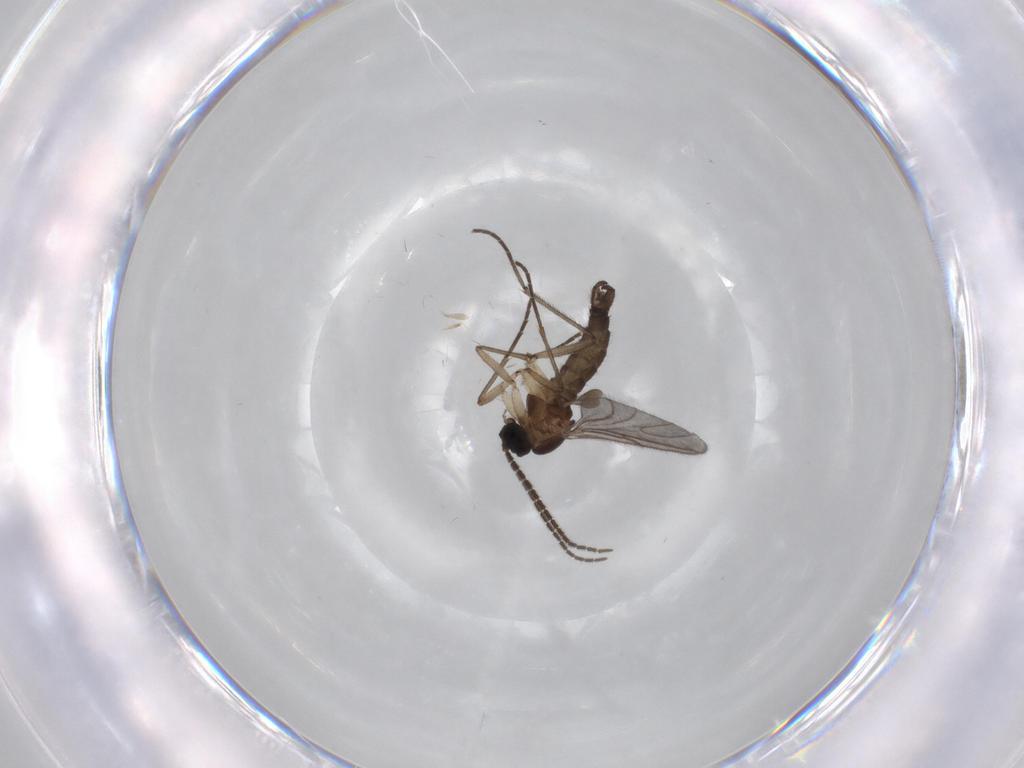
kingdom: Animalia
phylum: Arthropoda
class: Insecta
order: Diptera
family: Sciaridae
